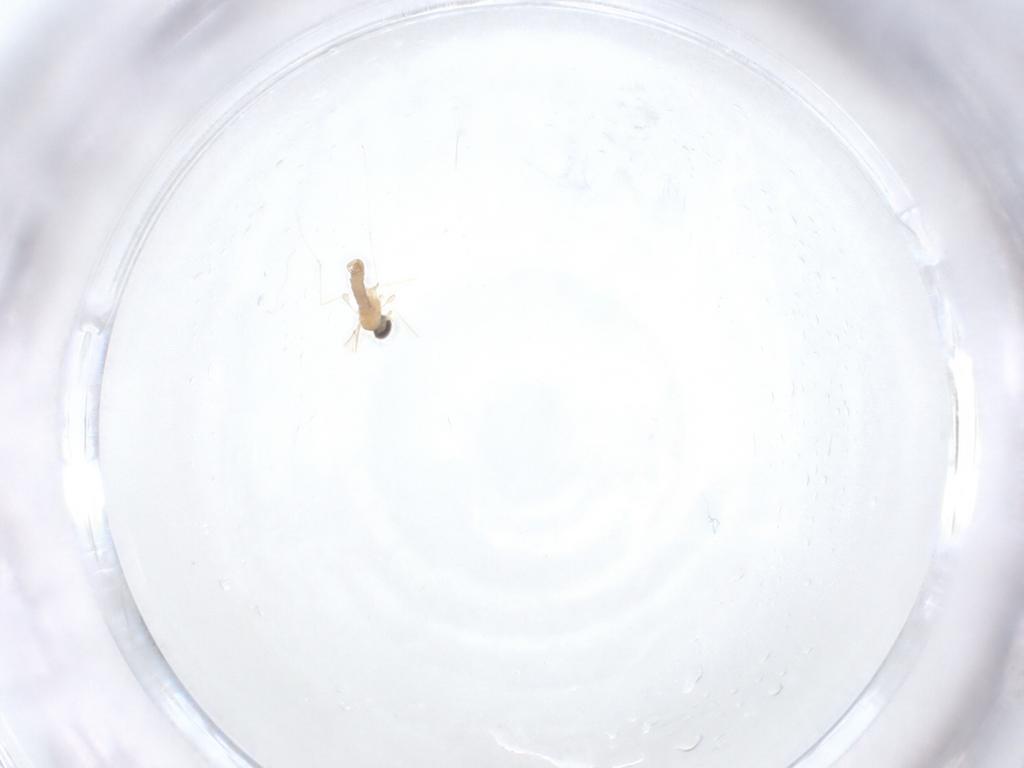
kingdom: Animalia
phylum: Arthropoda
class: Insecta
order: Diptera
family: Cecidomyiidae
